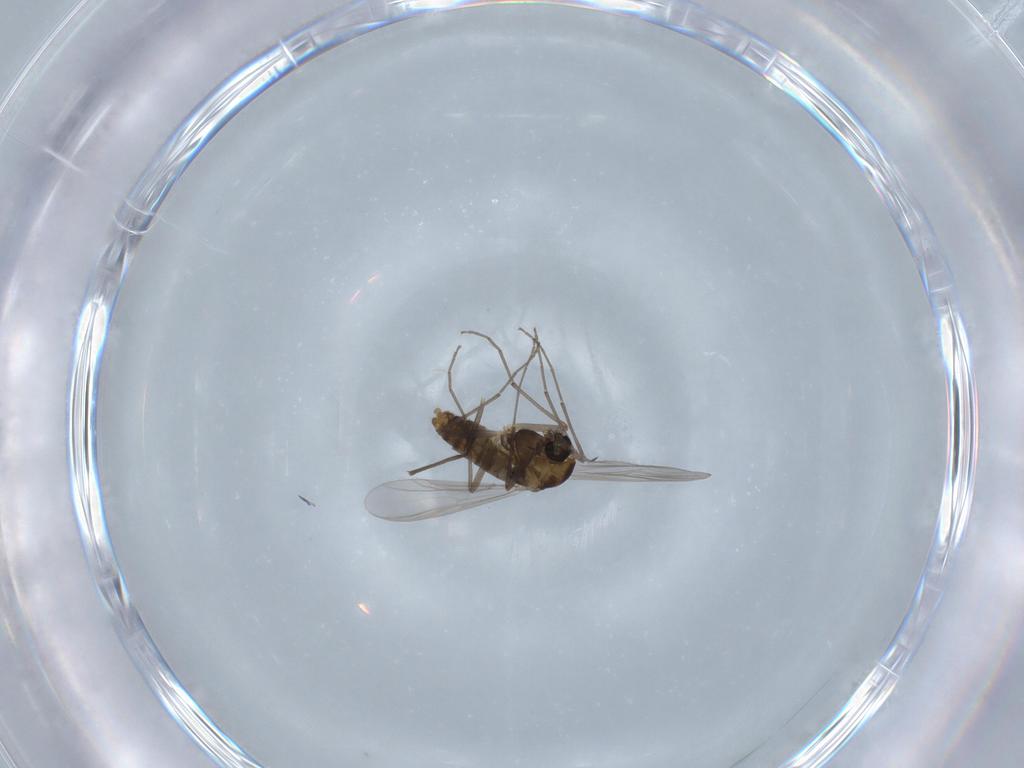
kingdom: Animalia
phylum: Arthropoda
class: Insecta
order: Diptera
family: Chironomidae
